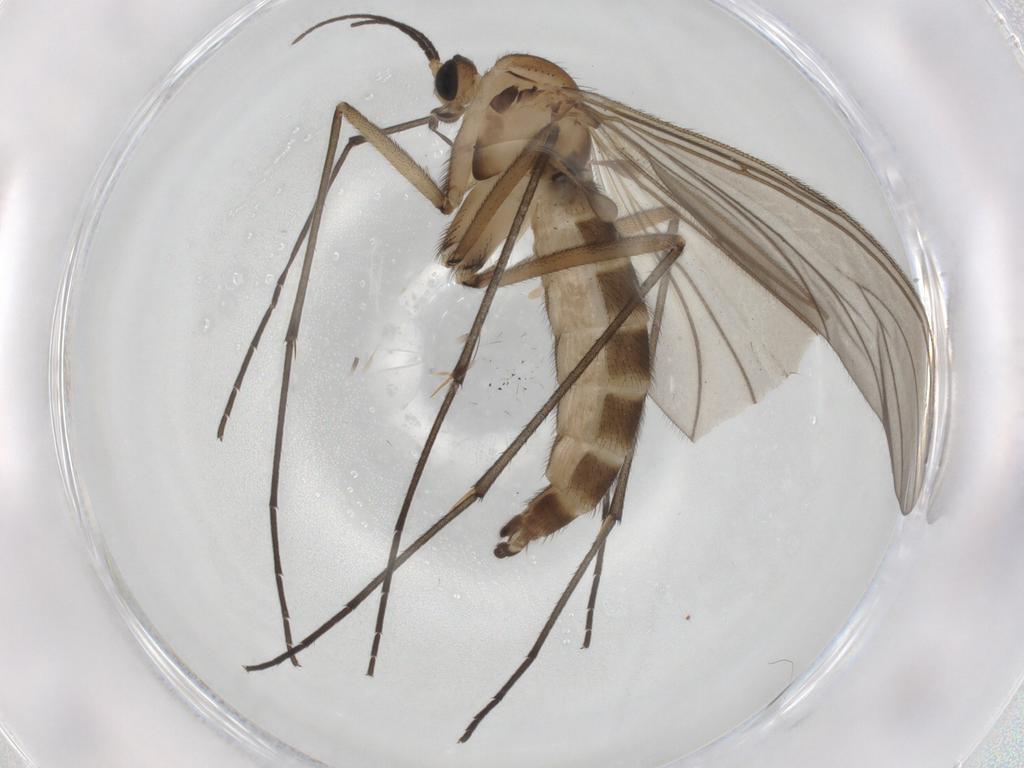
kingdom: Animalia
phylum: Arthropoda
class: Insecta
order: Diptera
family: Sciaridae
